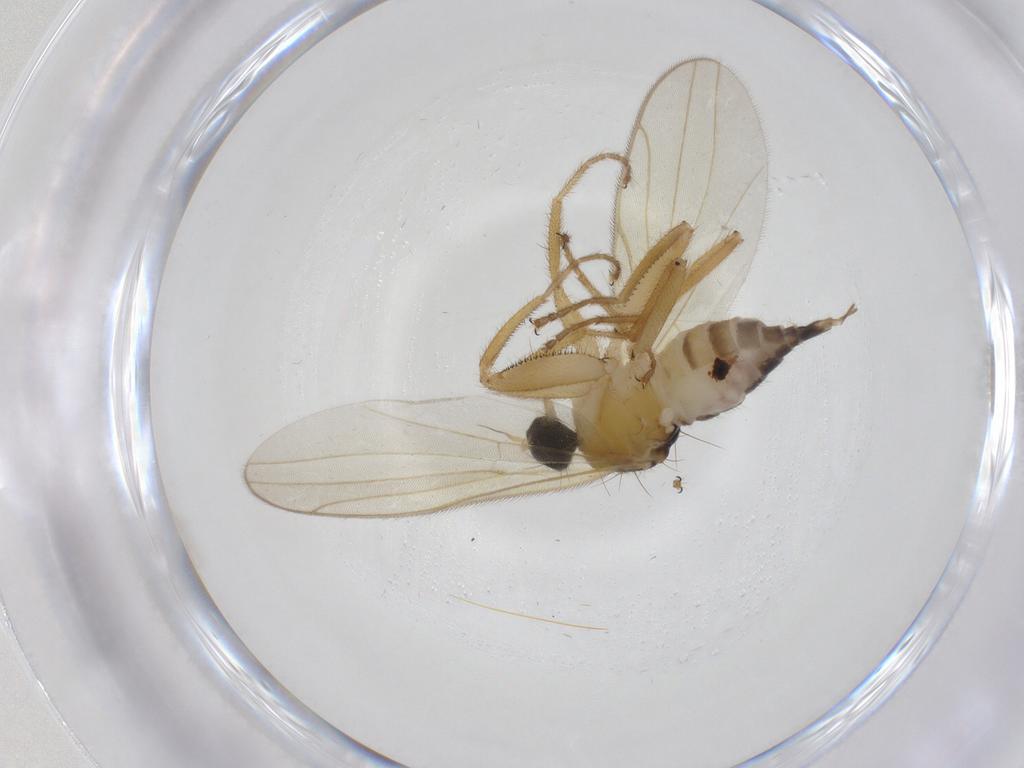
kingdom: Animalia
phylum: Arthropoda
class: Insecta
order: Diptera
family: Hybotidae
